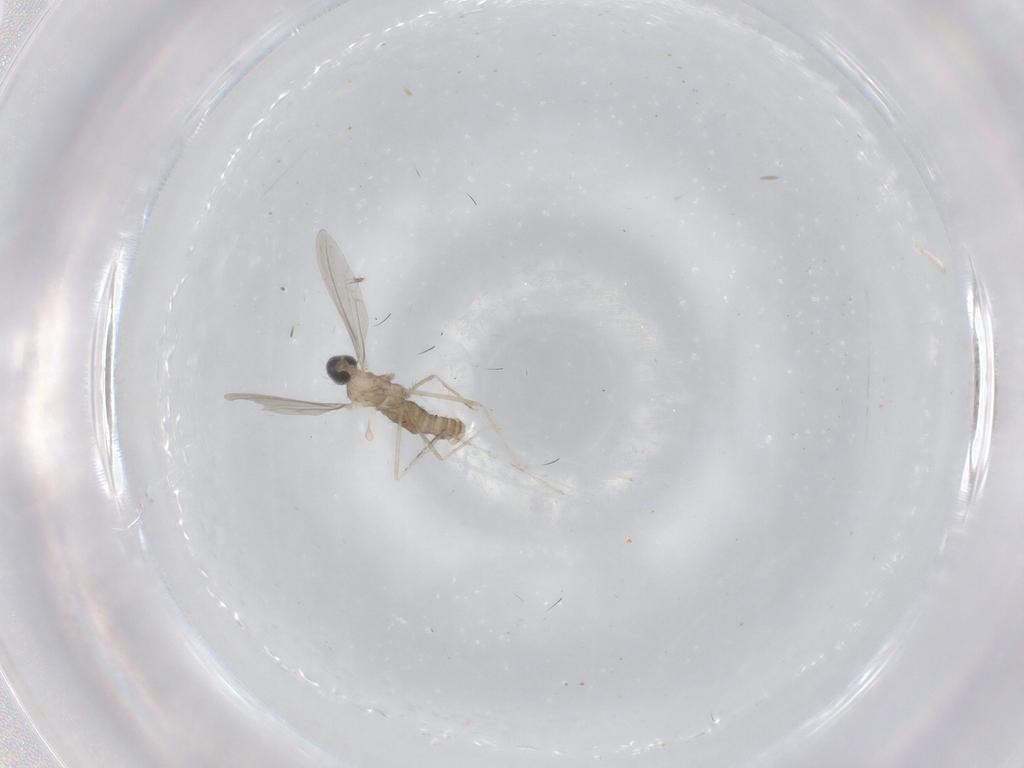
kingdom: Animalia
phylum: Arthropoda
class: Insecta
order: Diptera
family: Cecidomyiidae
